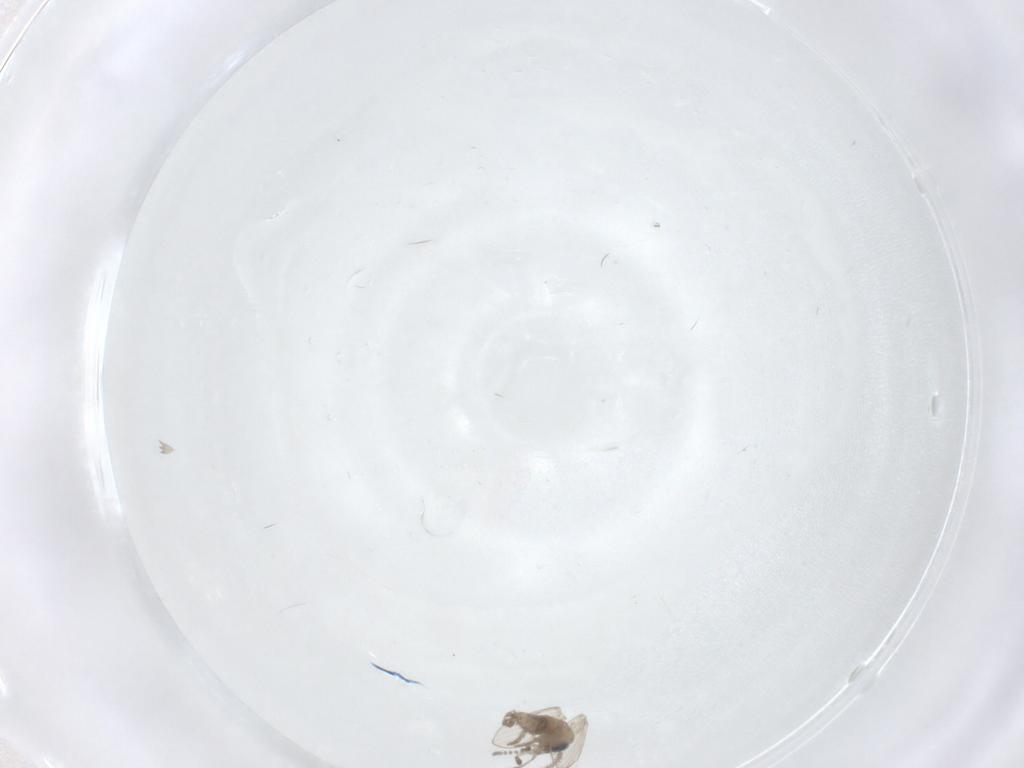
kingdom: Animalia
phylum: Arthropoda
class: Insecta
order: Diptera
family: Psychodidae
